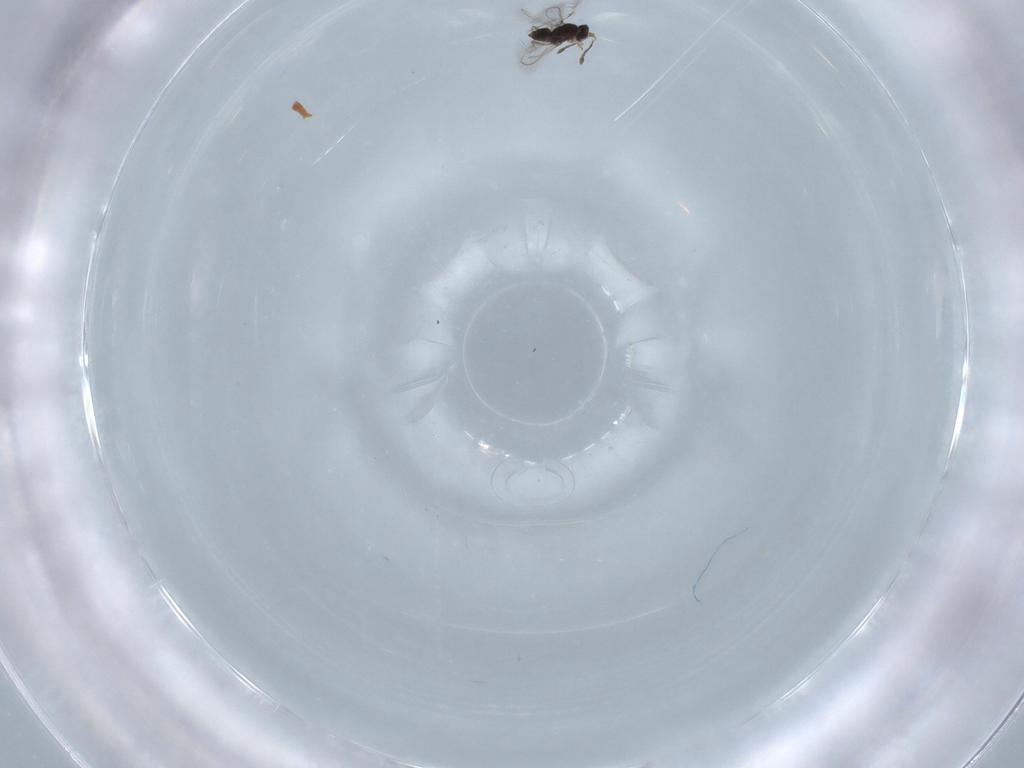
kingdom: Animalia
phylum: Arthropoda
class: Insecta
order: Hymenoptera
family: Mymaridae
